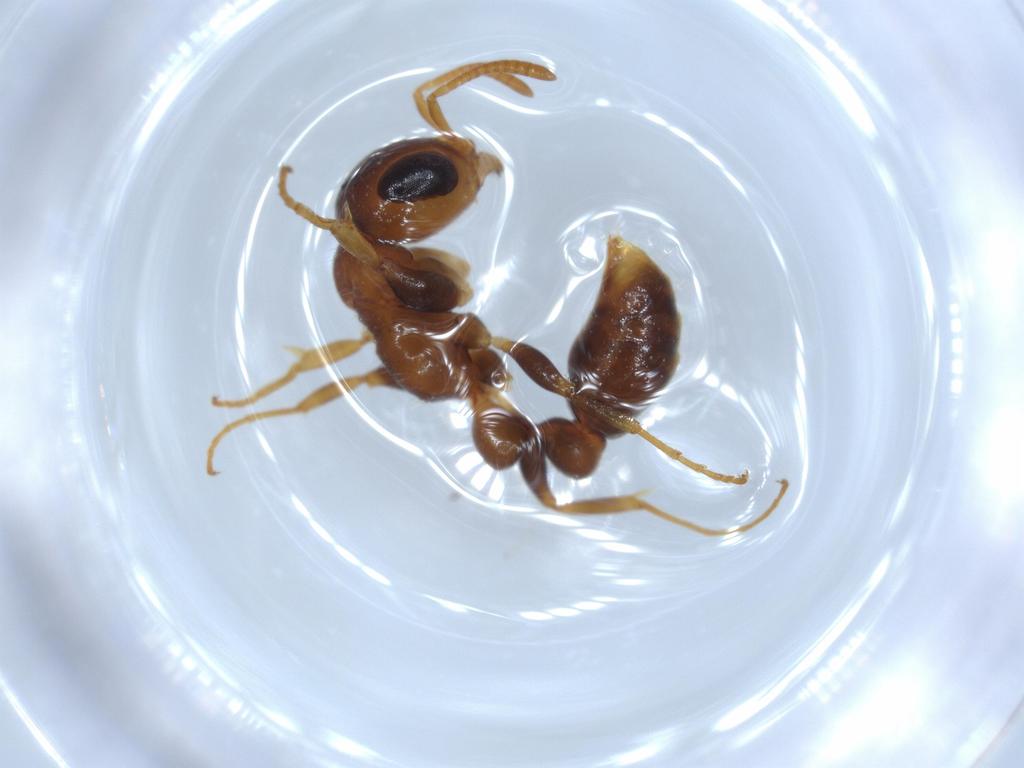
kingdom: Animalia
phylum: Arthropoda
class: Insecta
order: Hymenoptera
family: Formicidae
